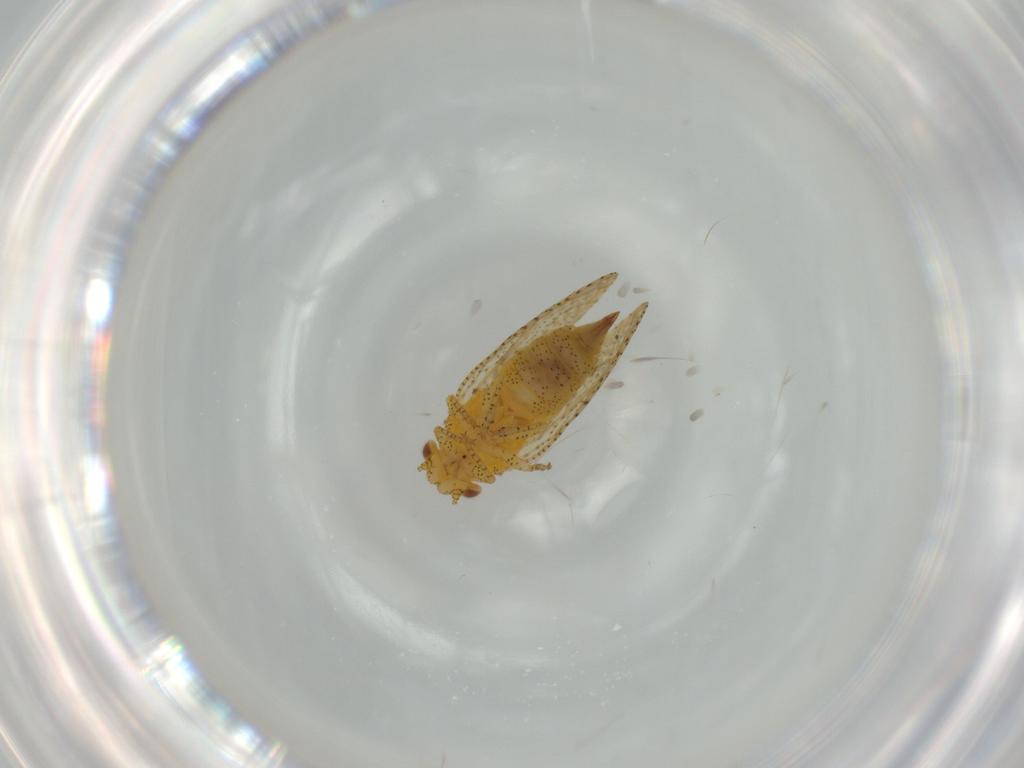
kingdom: Animalia
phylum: Arthropoda
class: Insecta
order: Hemiptera
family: Psyllidae
